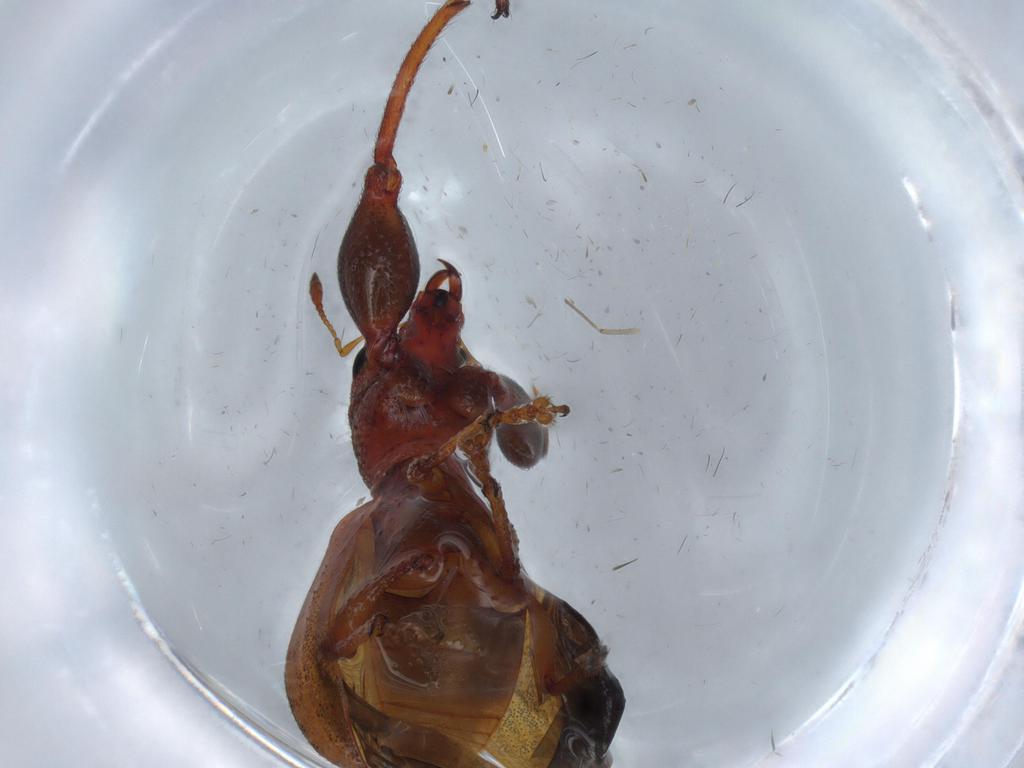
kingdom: Animalia
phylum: Arthropoda
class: Insecta
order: Coleoptera
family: Curculionidae
